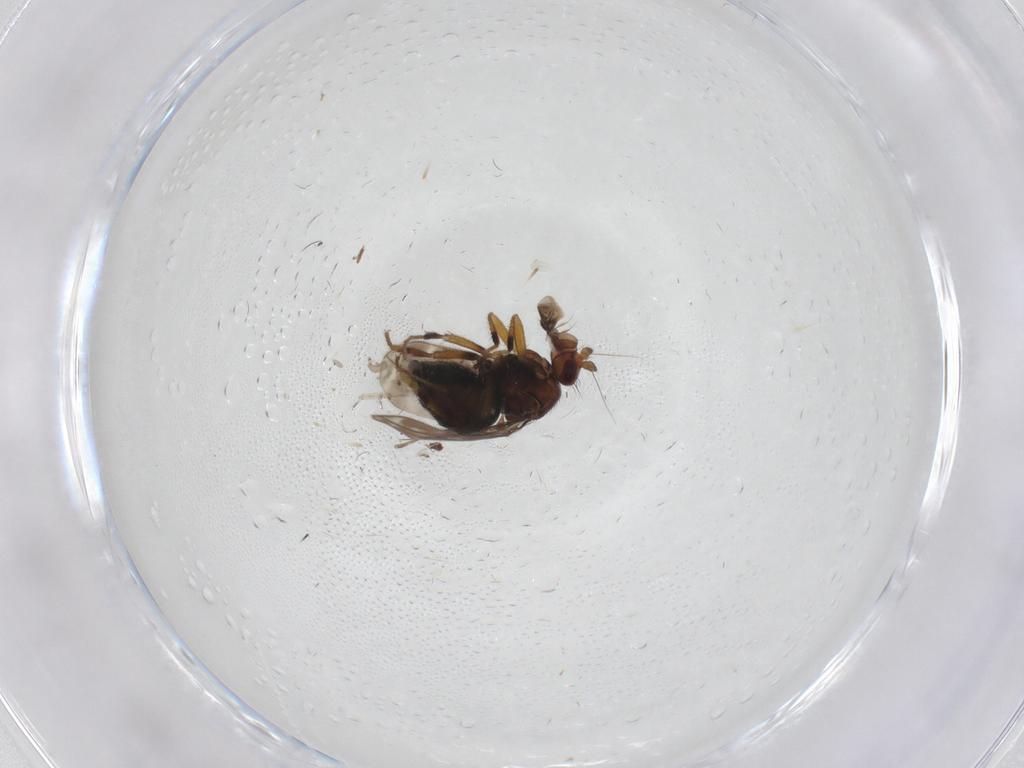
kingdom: Animalia
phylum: Arthropoda
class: Insecta
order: Diptera
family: Sphaeroceridae
